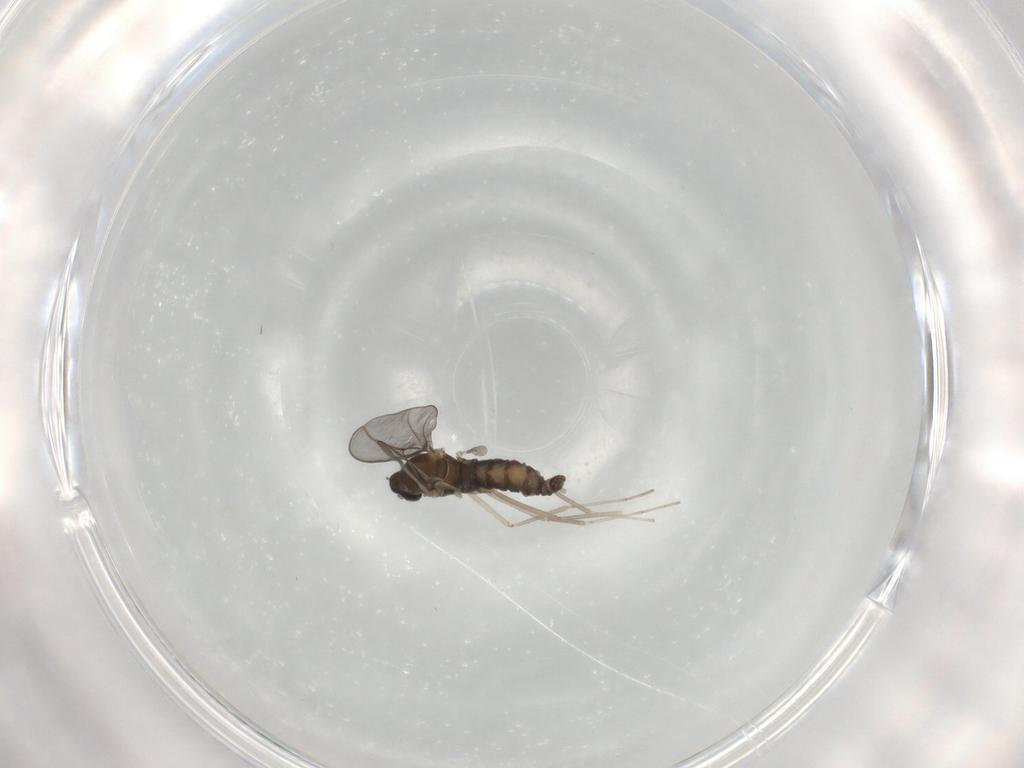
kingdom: Animalia
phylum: Arthropoda
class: Insecta
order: Diptera
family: Cecidomyiidae
